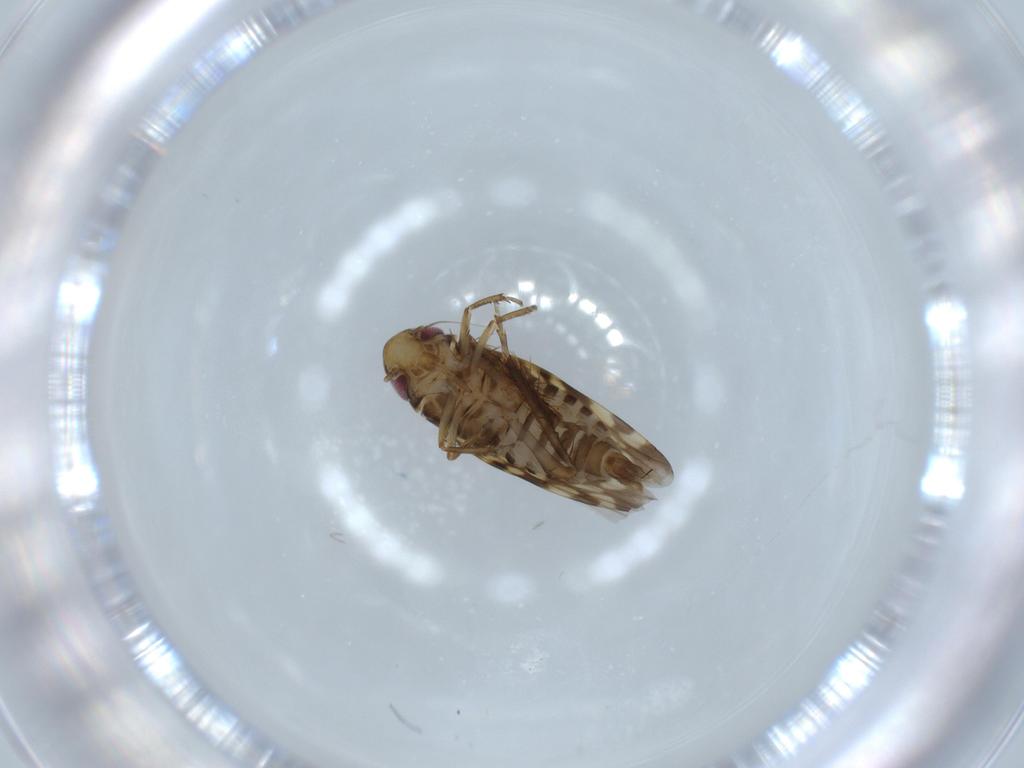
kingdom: Animalia
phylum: Arthropoda
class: Insecta
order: Hemiptera
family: Cicadellidae
